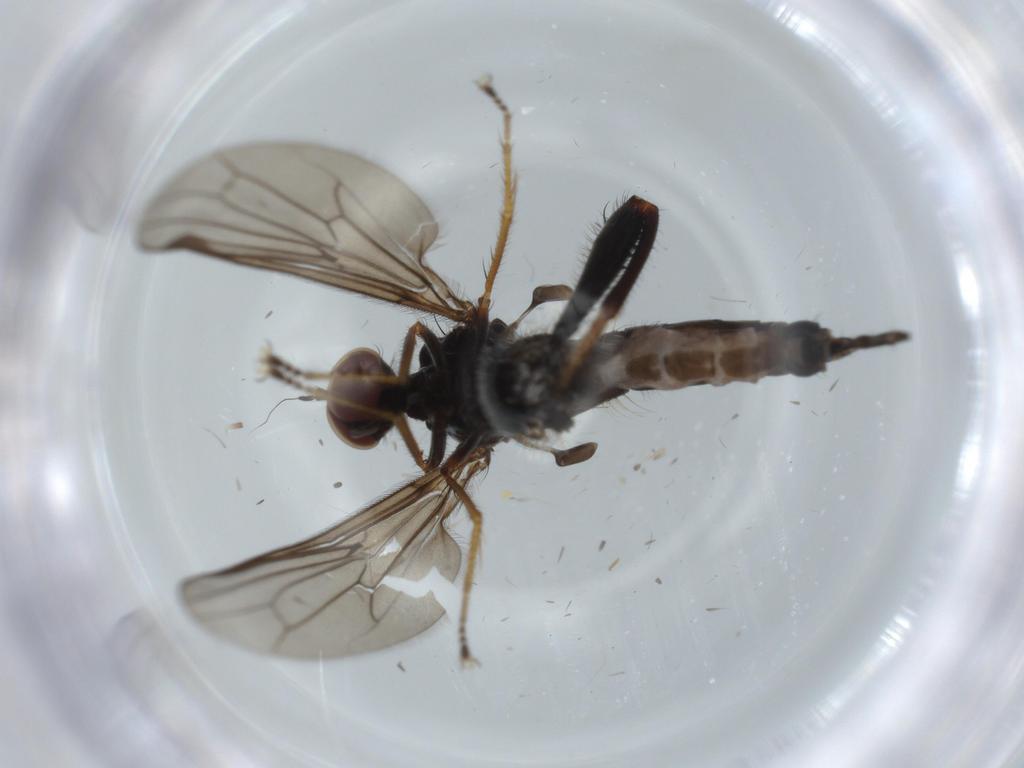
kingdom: Animalia
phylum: Arthropoda
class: Insecta
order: Diptera
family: Hybotidae
